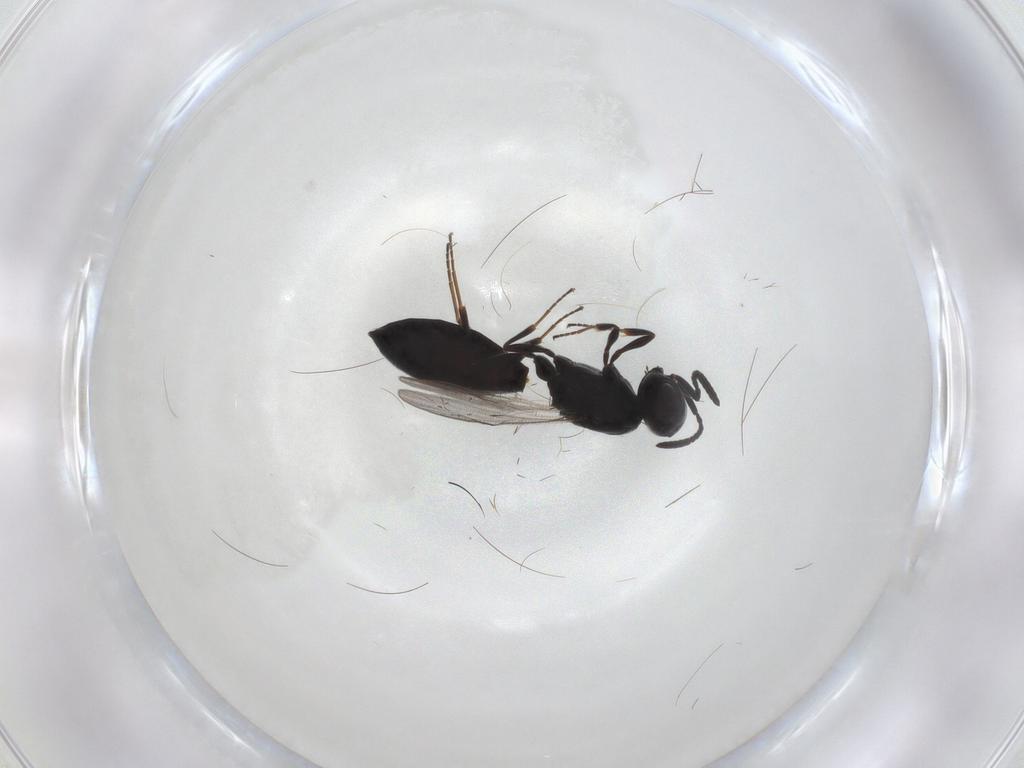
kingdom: Animalia
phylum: Arthropoda
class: Insecta
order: Hymenoptera
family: Scelionidae
